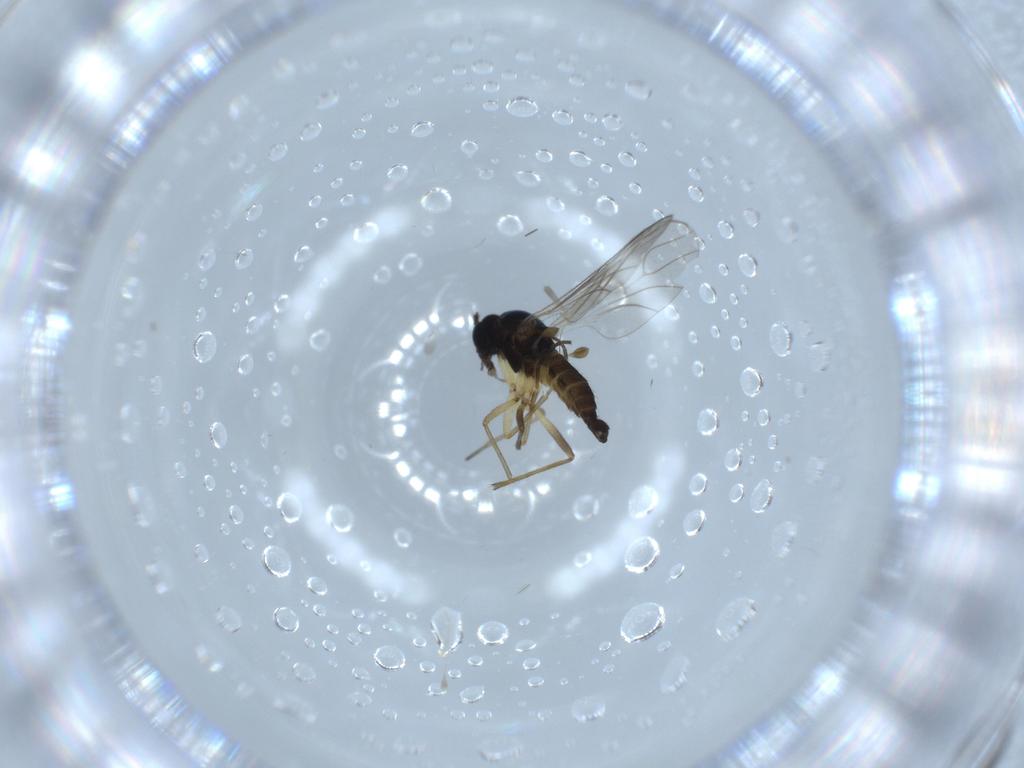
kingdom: Animalia
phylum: Arthropoda
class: Insecta
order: Diptera
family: Sciaridae
